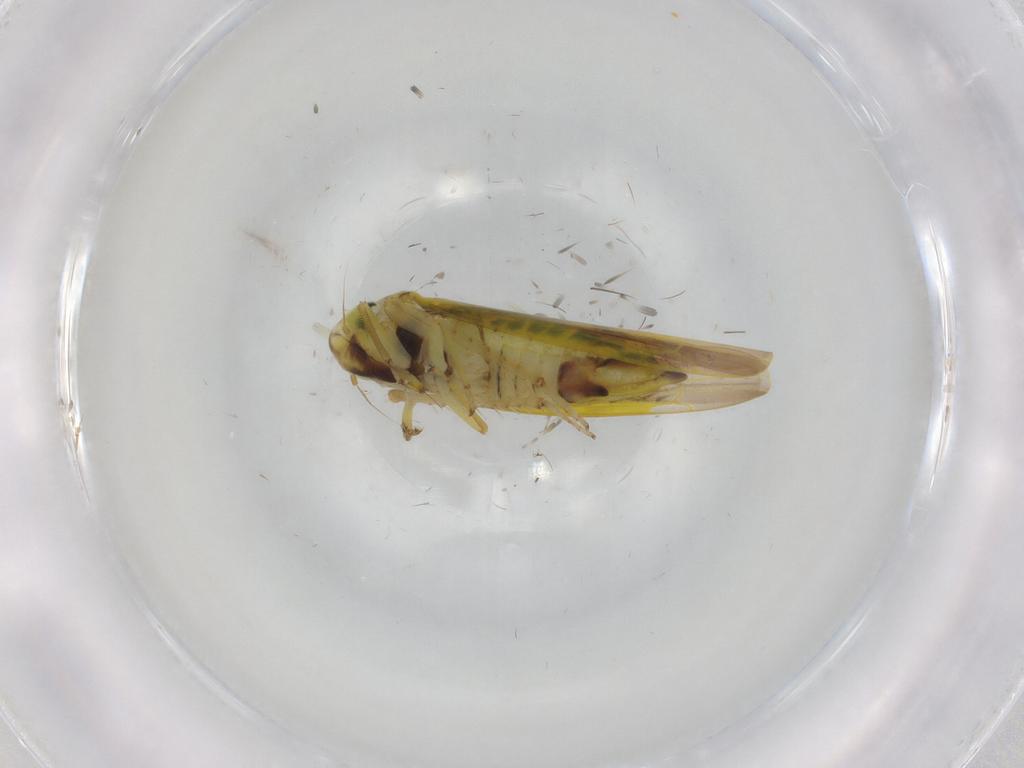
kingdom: Animalia
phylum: Arthropoda
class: Insecta
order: Hemiptera
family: Cicadellidae
